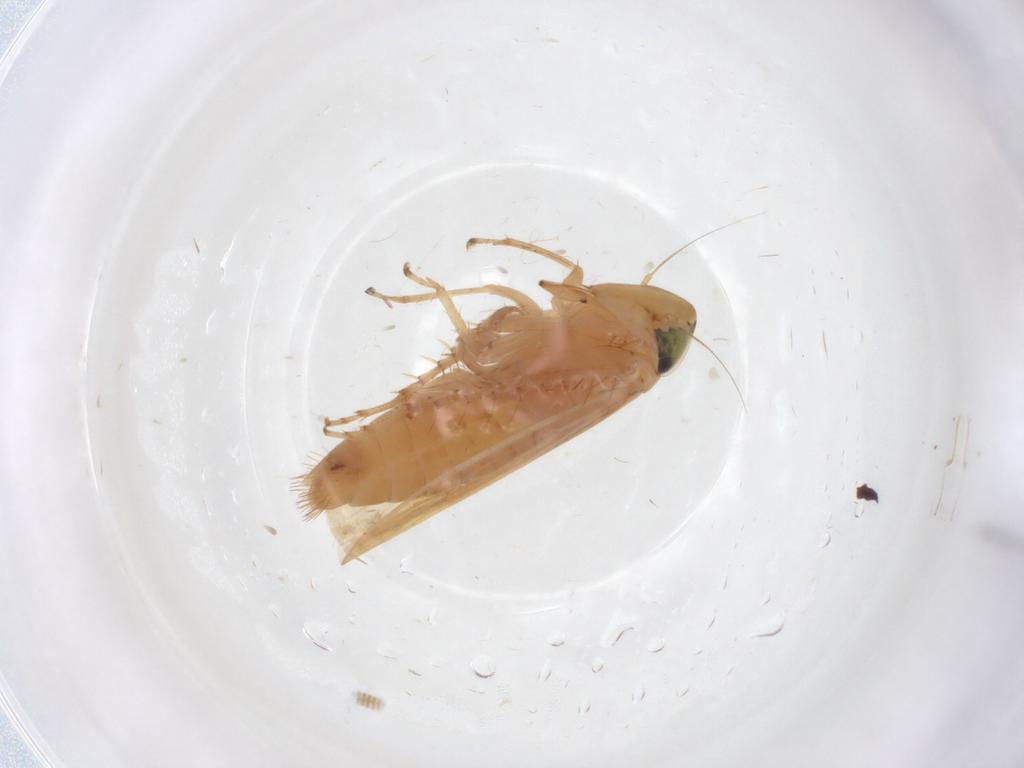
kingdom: Animalia
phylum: Arthropoda
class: Insecta
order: Hemiptera
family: Cicadellidae
